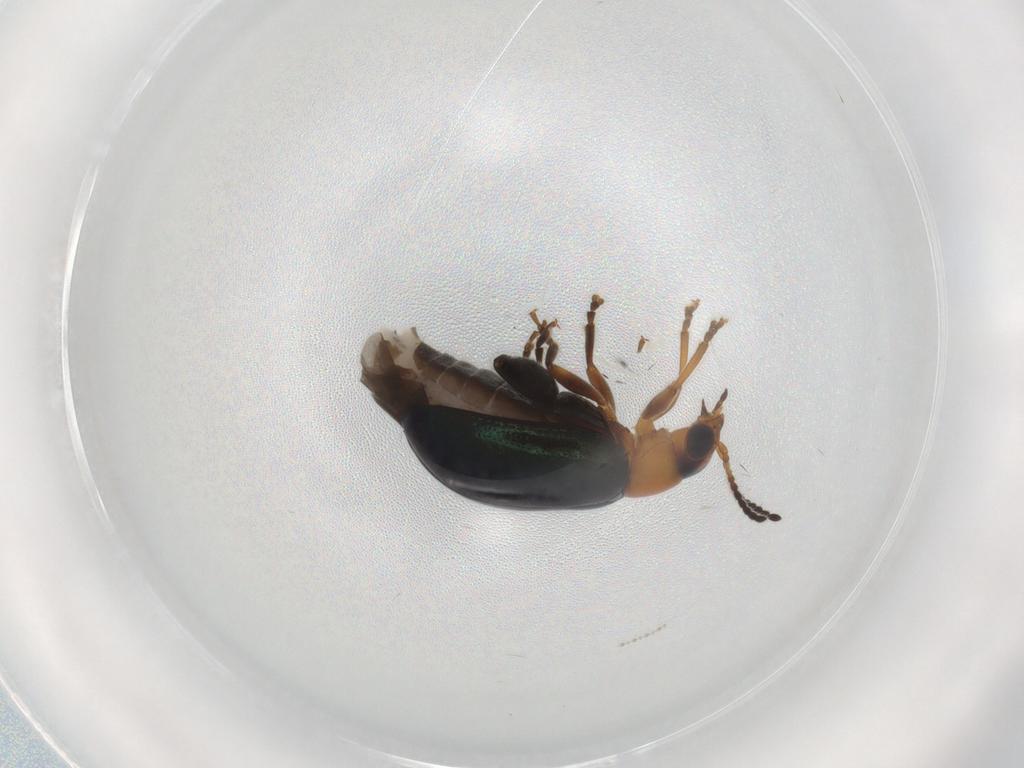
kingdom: Animalia
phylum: Arthropoda
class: Insecta
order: Coleoptera
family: Chrysomelidae
